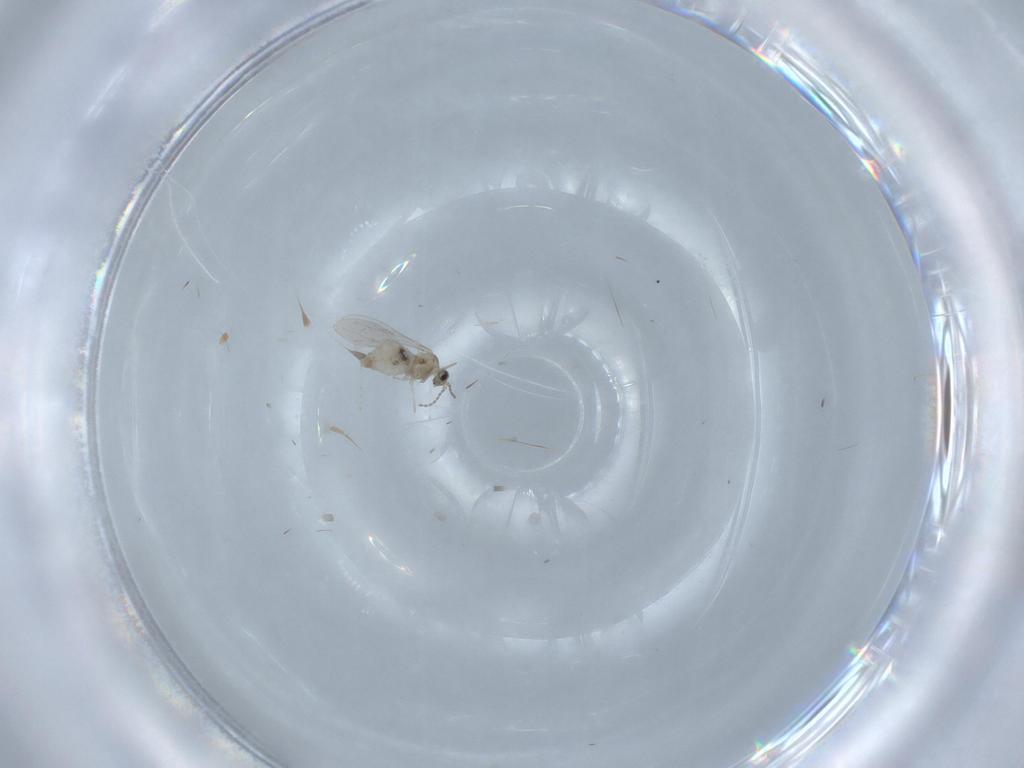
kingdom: Animalia
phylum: Arthropoda
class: Insecta
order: Diptera
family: Cecidomyiidae
